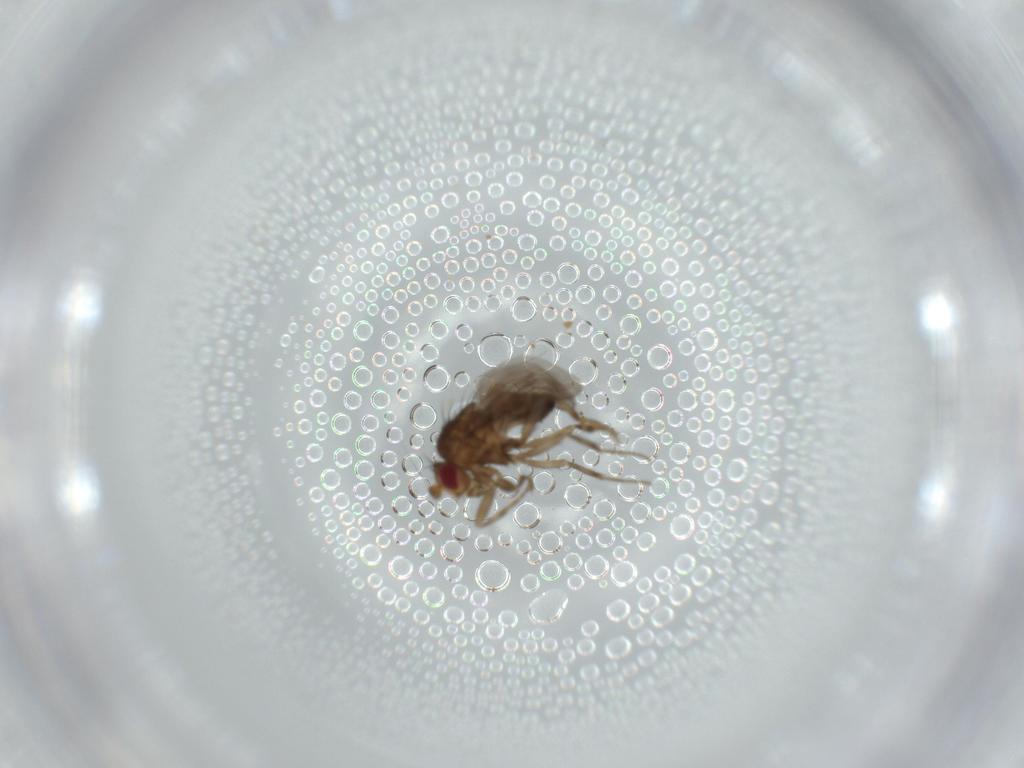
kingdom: Animalia
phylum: Arthropoda
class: Insecta
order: Diptera
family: Sphaeroceridae
